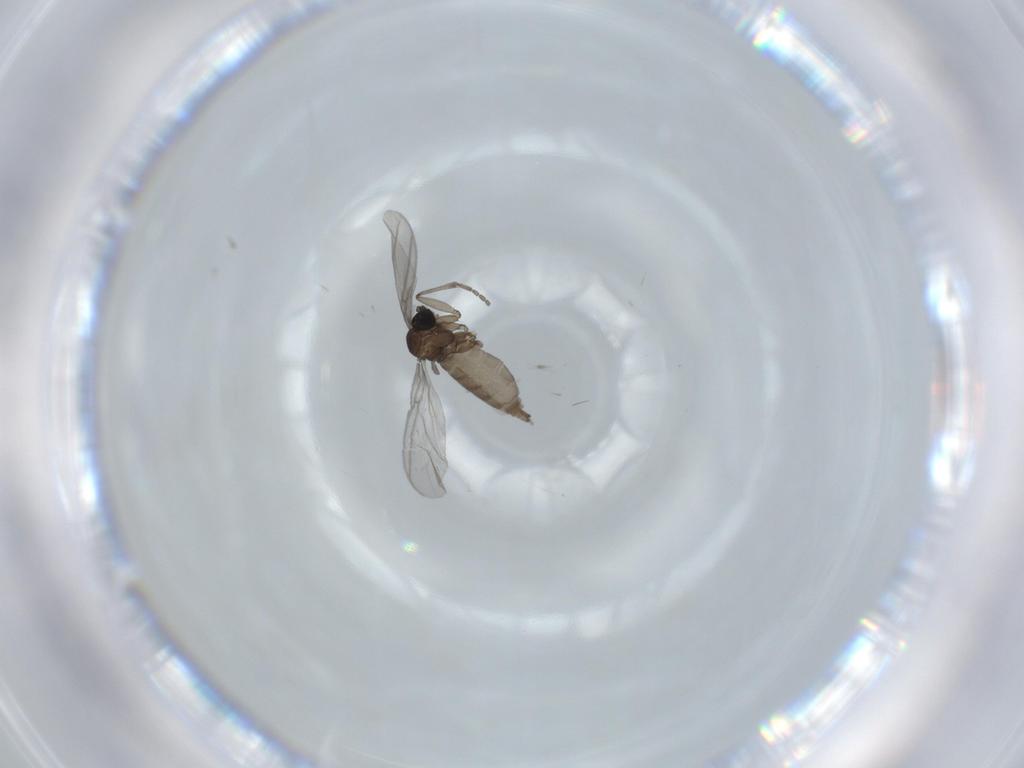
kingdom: Animalia
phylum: Arthropoda
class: Insecta
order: Diptera
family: Sciaridae
